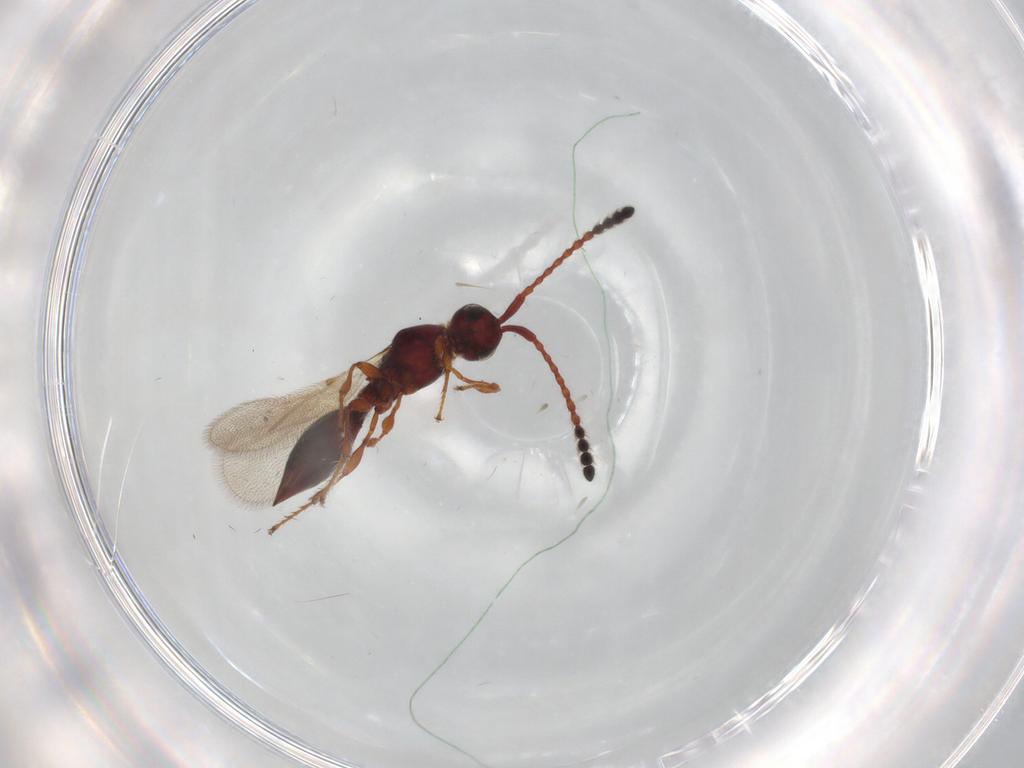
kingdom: Animalia
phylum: Arthropoda
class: Insecta
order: Hymenoptera
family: Diapriidae
